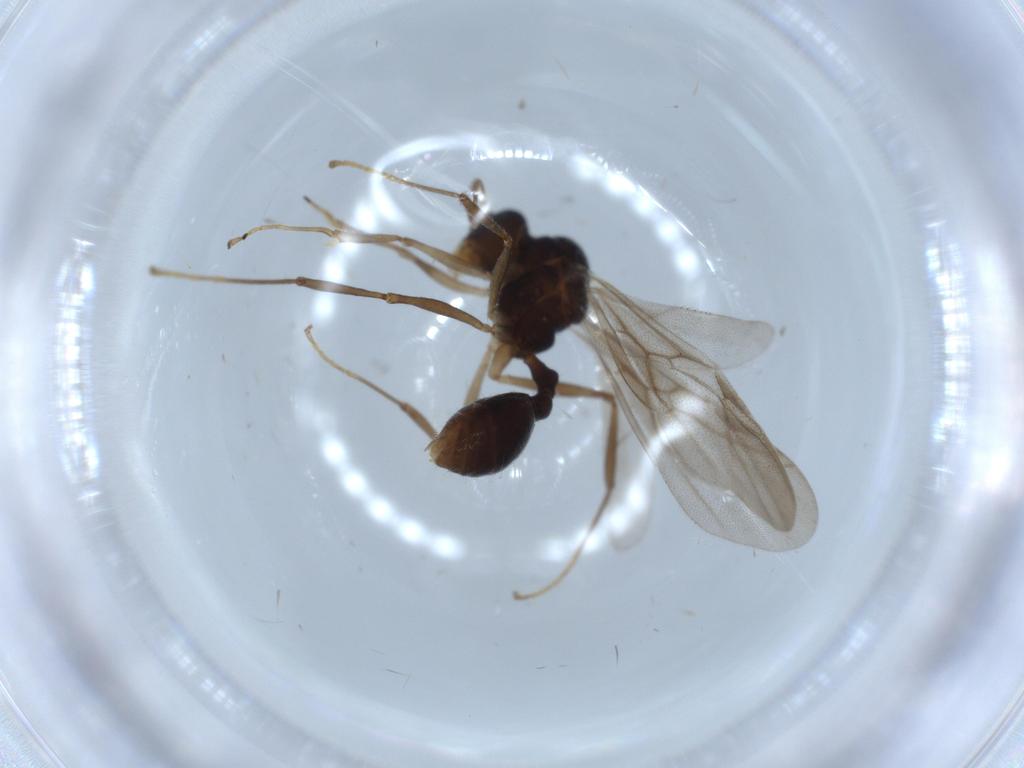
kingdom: Animalia
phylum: Arthropoda
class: Insecta
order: Hymenoptera
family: Formicidae
